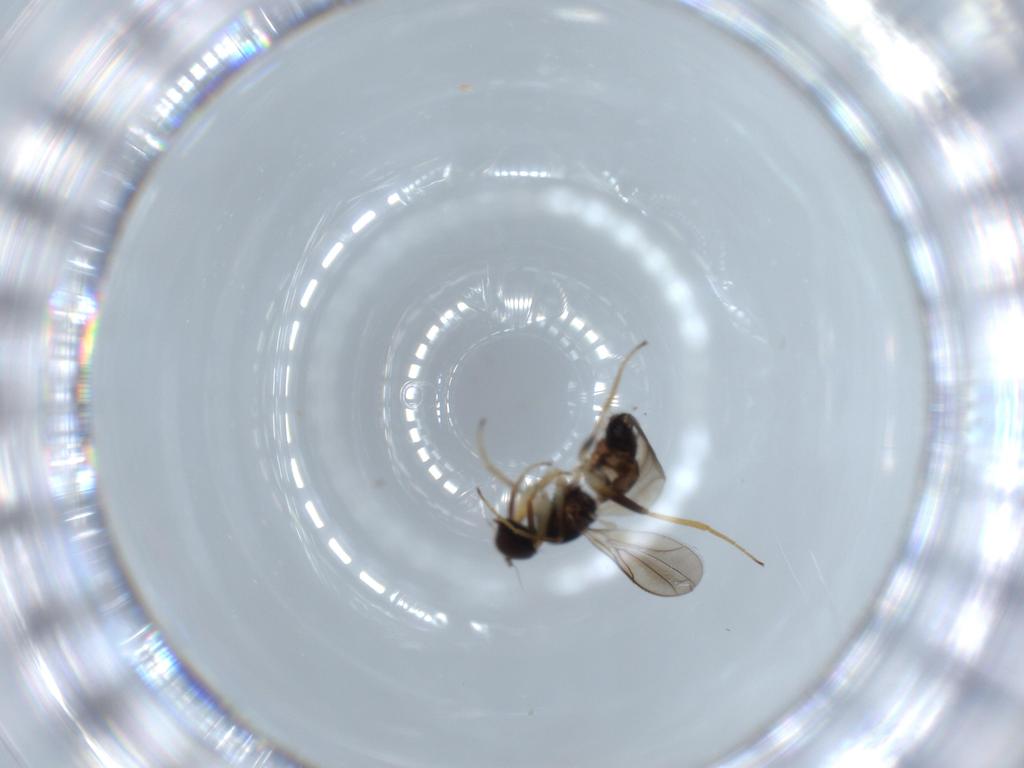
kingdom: Animalia
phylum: Arthropoda
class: Insecta
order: Diptera
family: Hybotidae
